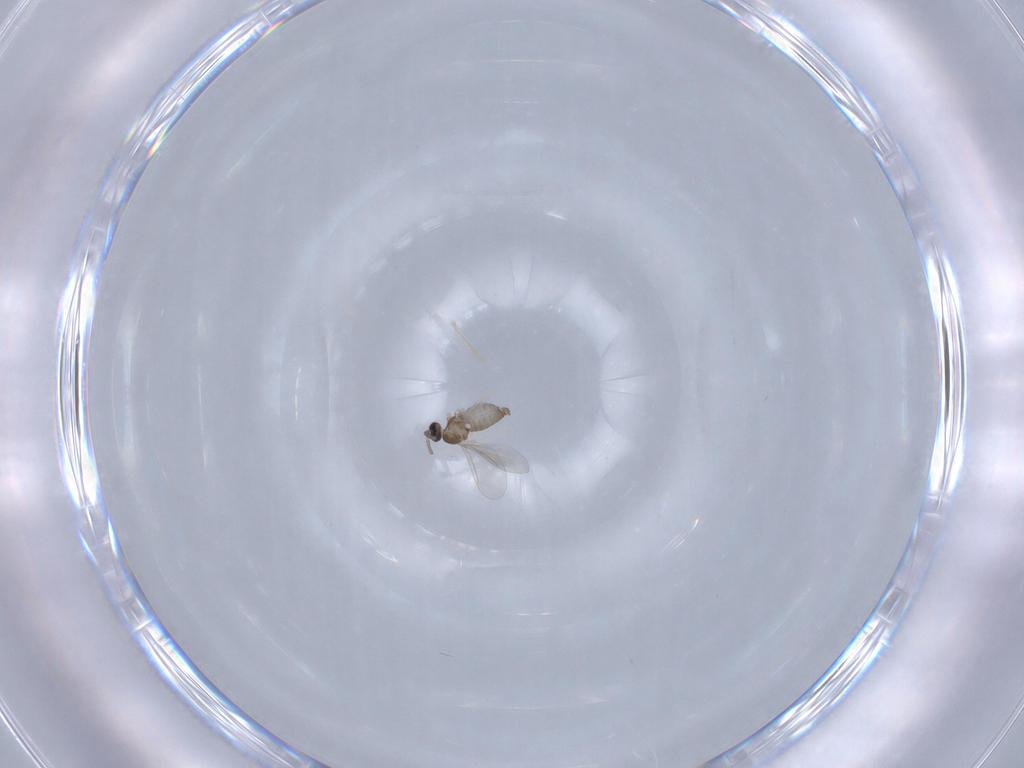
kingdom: Animalia
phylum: Arthropoda
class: Insecta
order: Diptera
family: Cecidomyiidae
